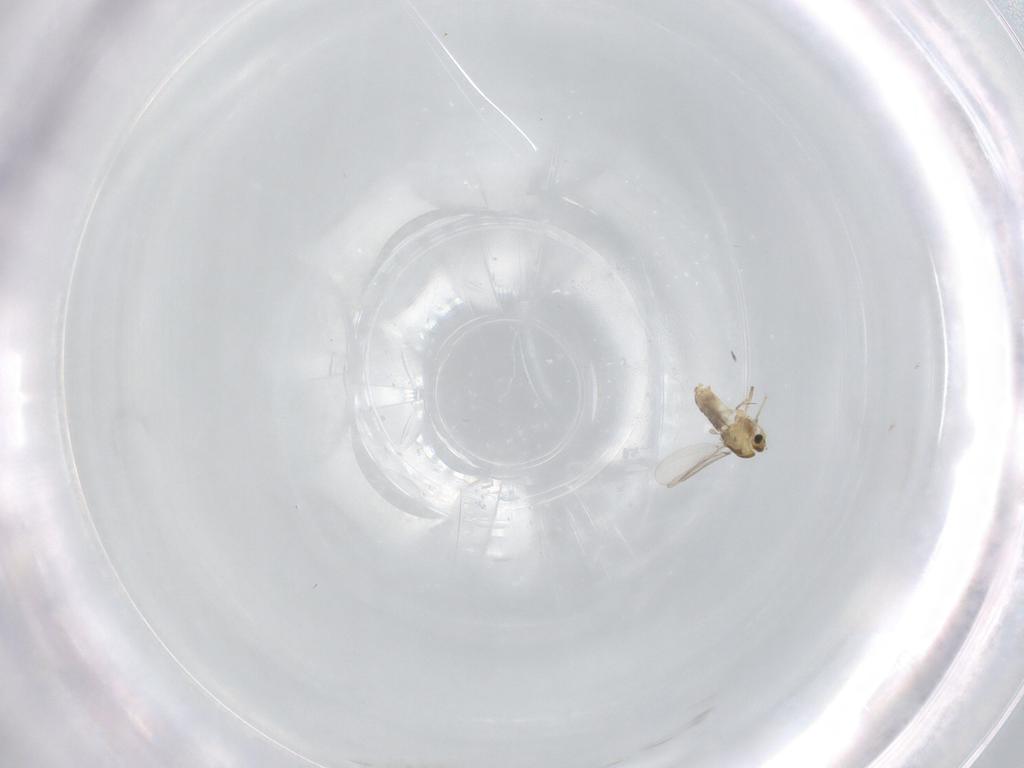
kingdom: Animalia
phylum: Arthropoda
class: Insecta
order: Diptera
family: Chironomidae
